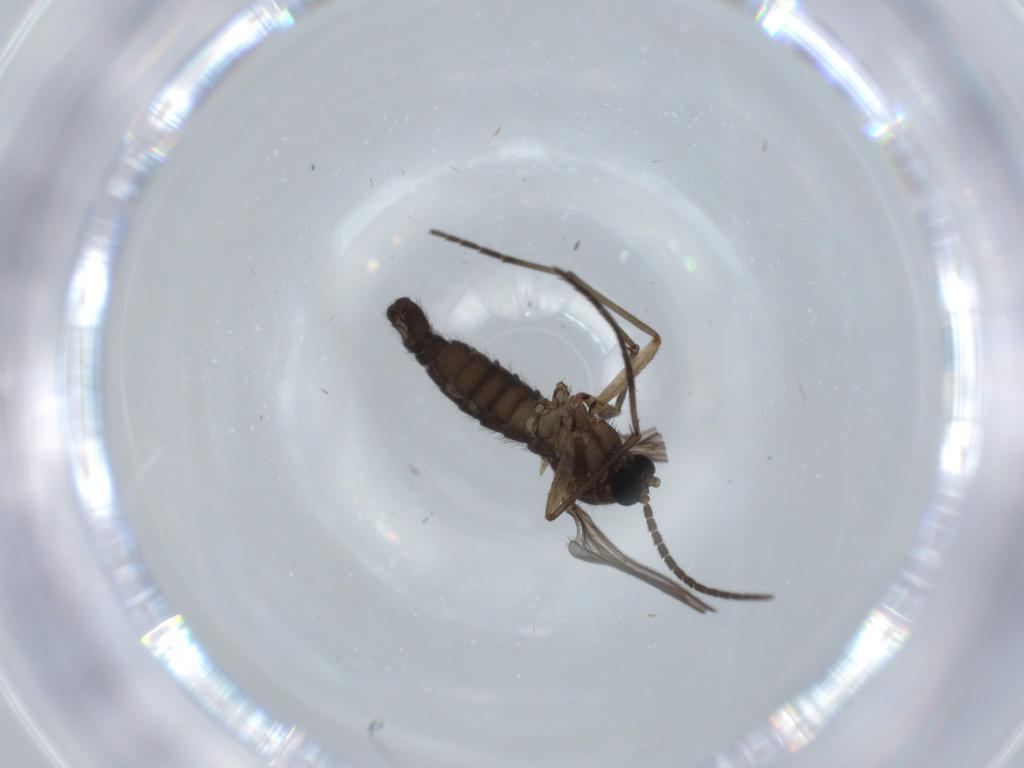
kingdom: Animalia
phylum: Arthropoda
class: Insecta
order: Diptera
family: Sciaridae
